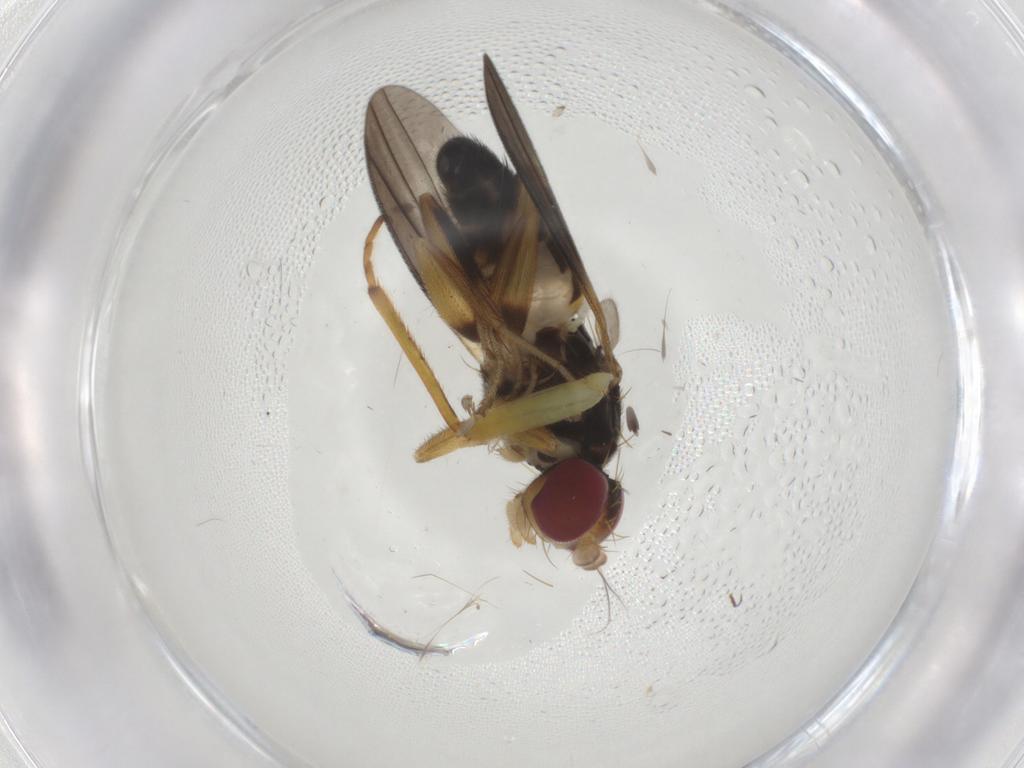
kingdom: Animalia
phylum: Arthropoda
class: Insecta
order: Diptera
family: Clusiidae
